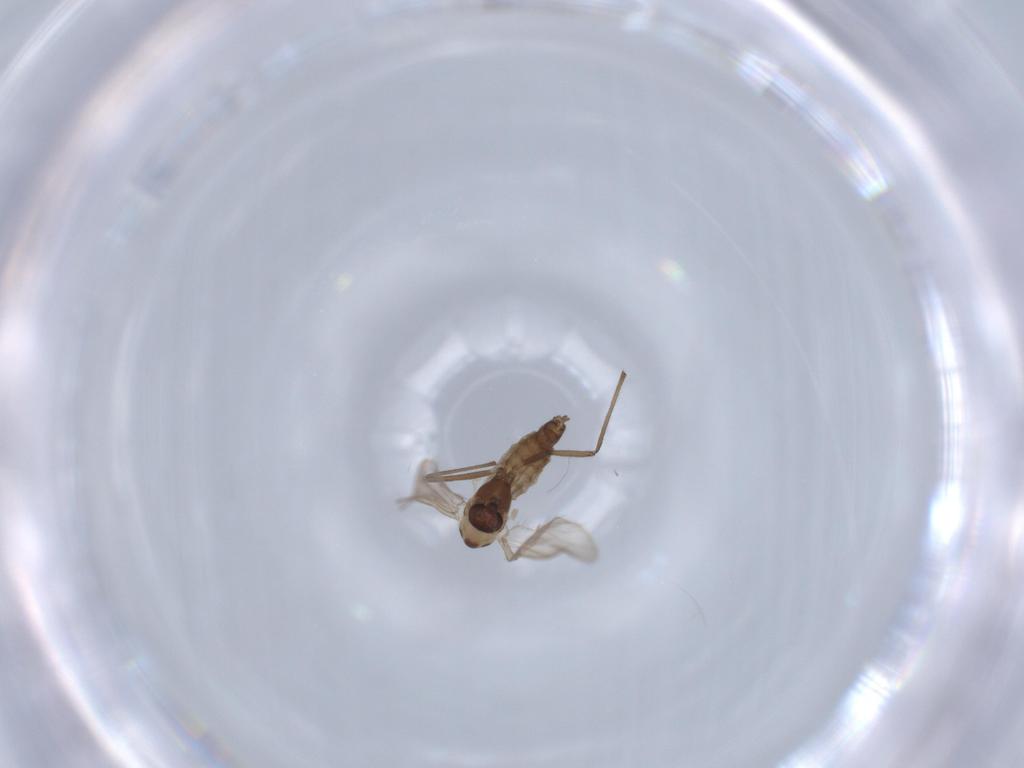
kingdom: Animalia
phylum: Arthropoda
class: Insecta
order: Diptera
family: Chironomidae
